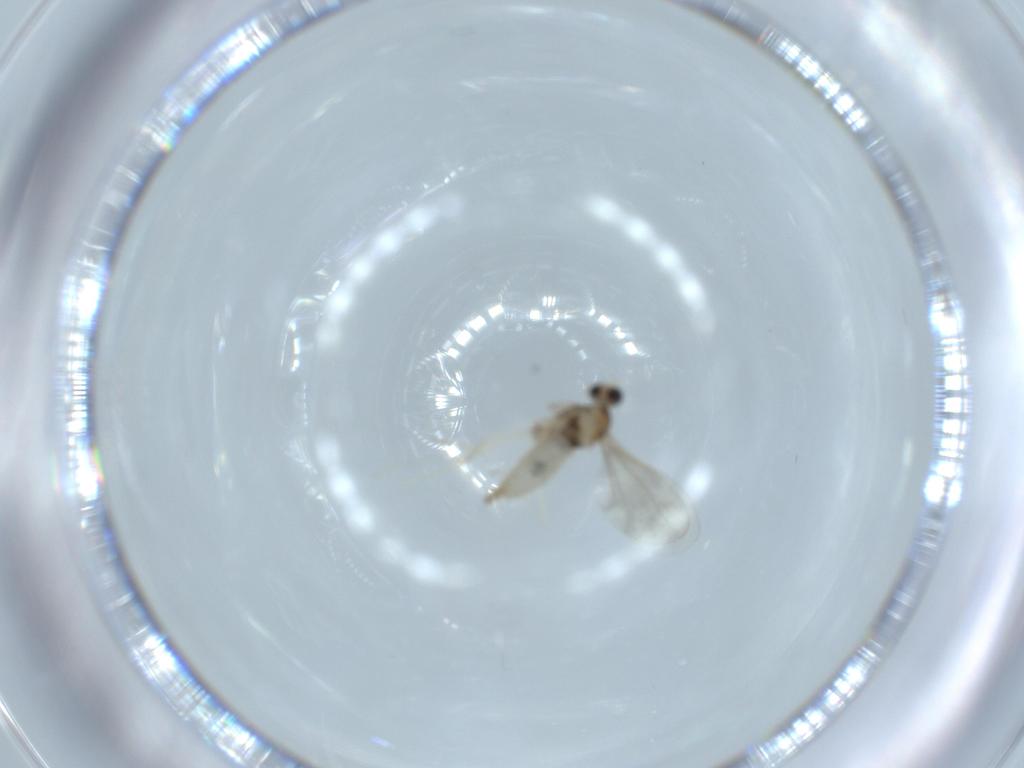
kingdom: Animalia
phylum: Arthropoda
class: Insecta
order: Diptera
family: Sciaridae
